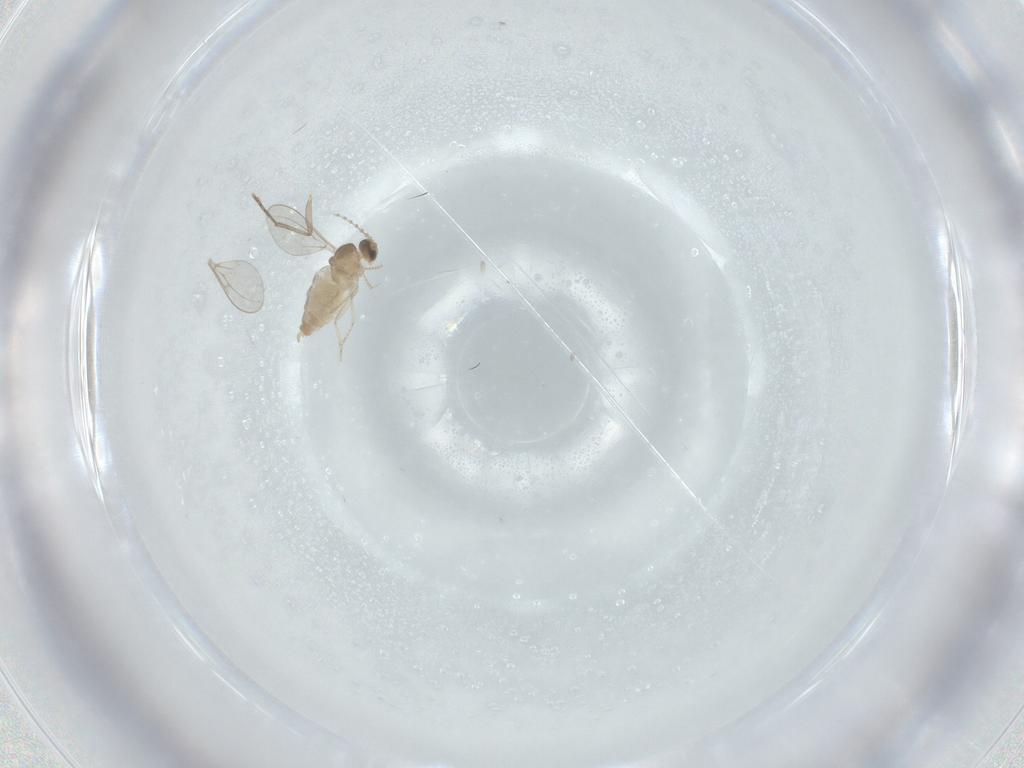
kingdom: Animalia
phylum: Arthropoda
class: Insecta
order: Diptera
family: Cecidomyiidae
